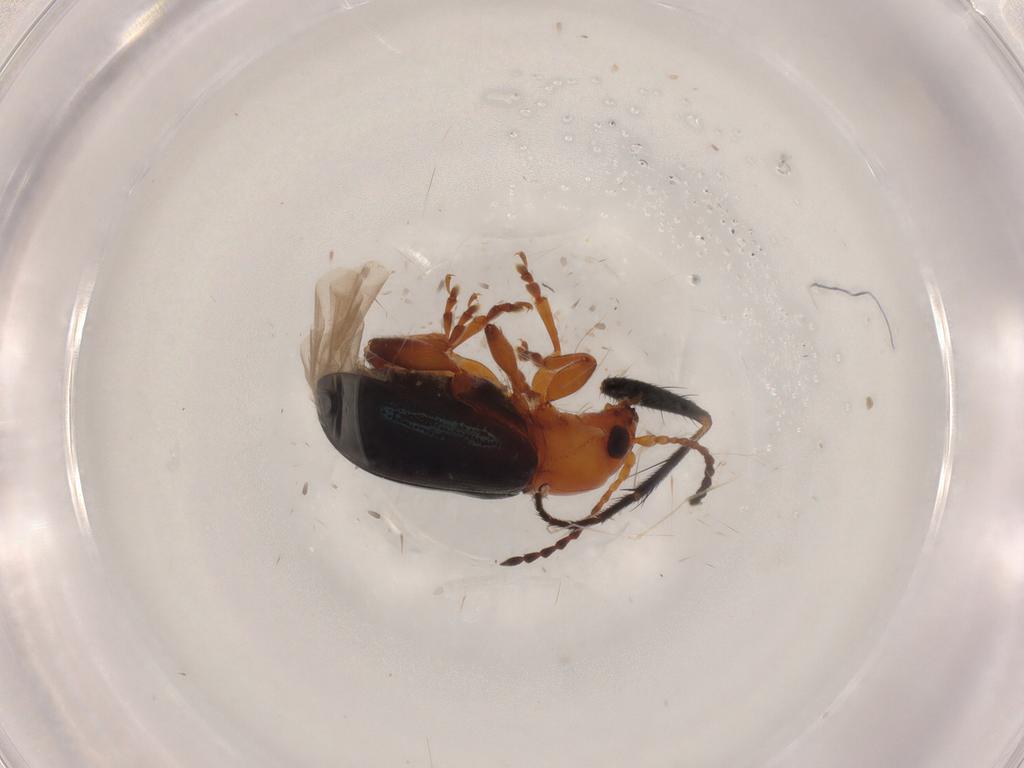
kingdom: Animalia
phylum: Arthropoda
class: Insecta
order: Coleoptera
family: Chrysomelidae
